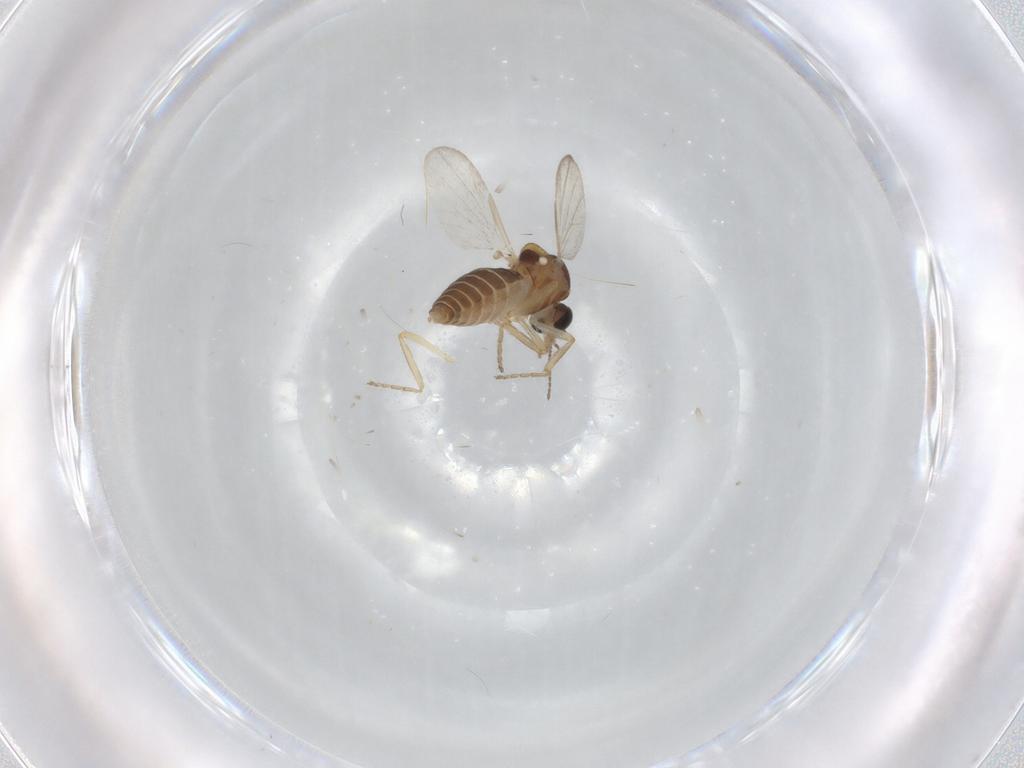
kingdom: Animalia
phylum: Arthropoda
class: Insecta
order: Diptera
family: Ceratopogonidae
